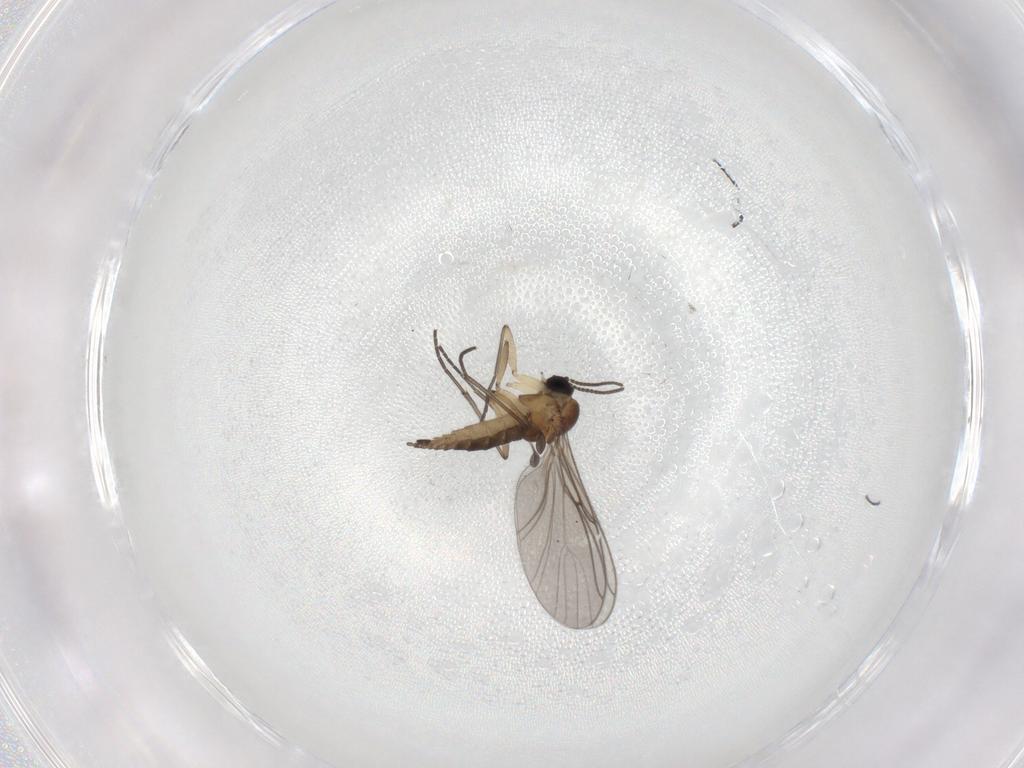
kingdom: Animalia
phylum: Arthropoda
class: Insecta
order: Diptera
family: Sciaridae
